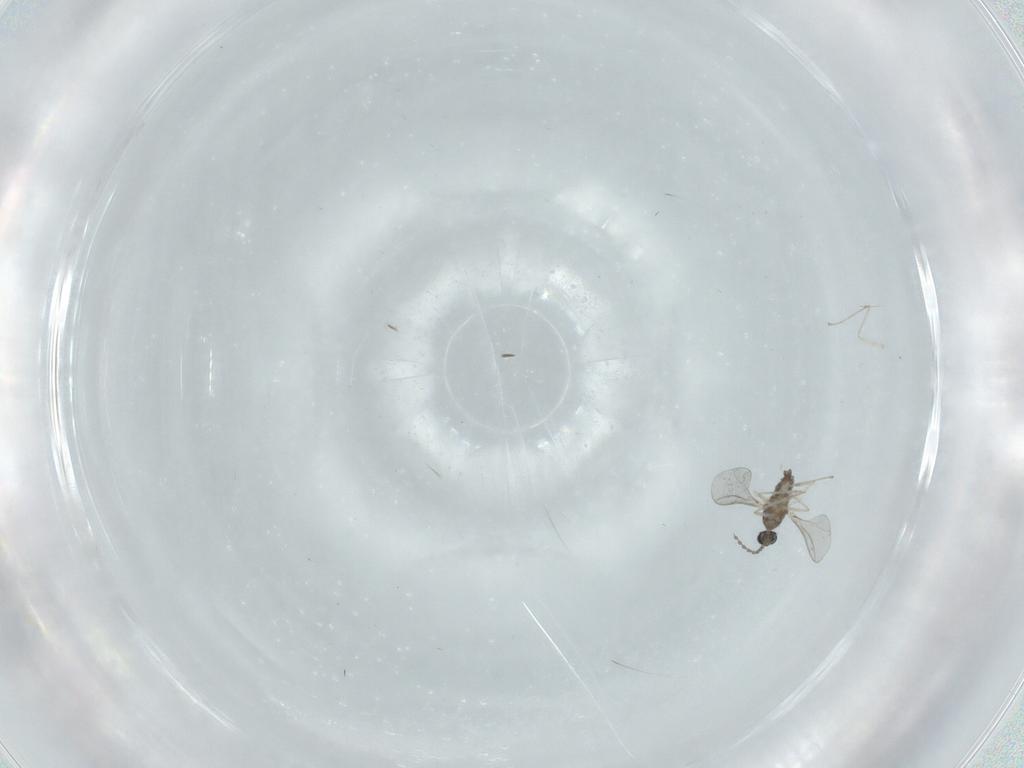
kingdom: Animalia
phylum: Arthropoda
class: Insecta
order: Diptera
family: Cecidomyiidae
